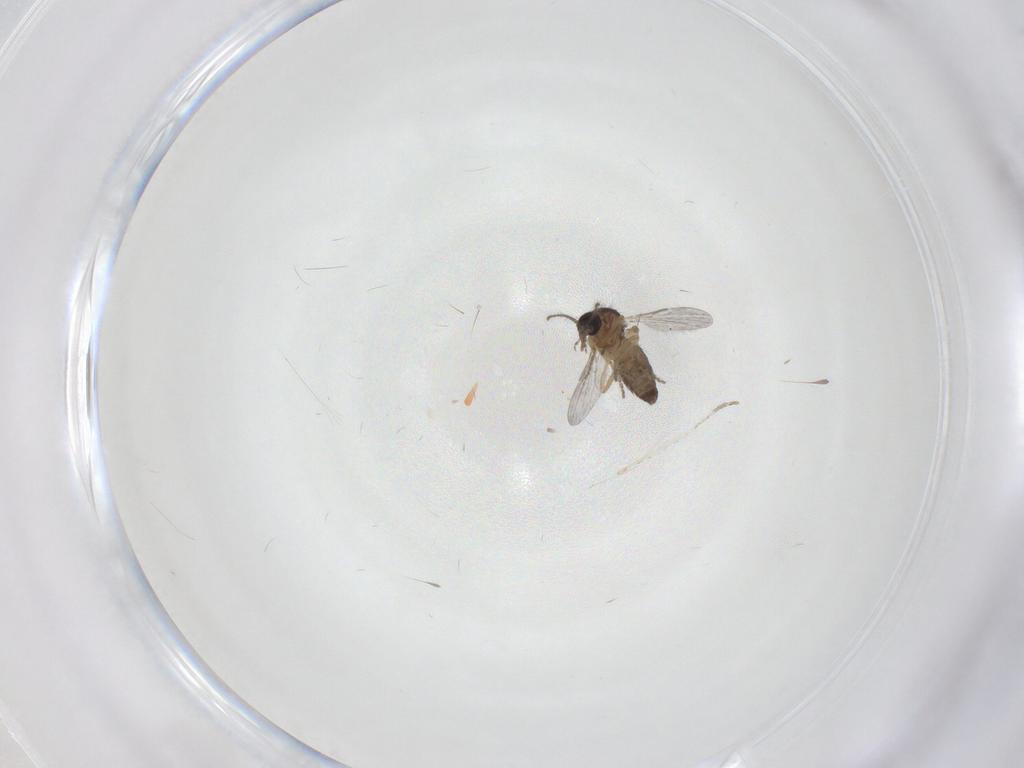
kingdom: Animalia
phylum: Arthropoda
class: Insecta
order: Diptera
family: Ceratopogonidae
